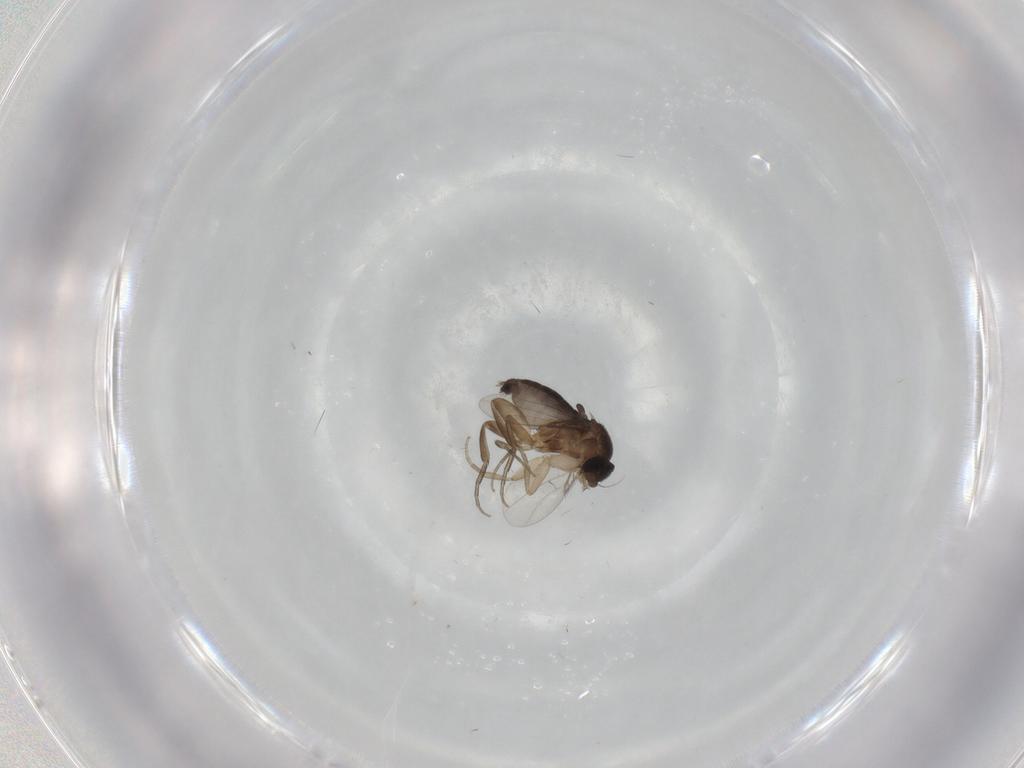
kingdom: Animalia
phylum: Arthropoda
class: Insecta
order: Diptera
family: Phoridae
